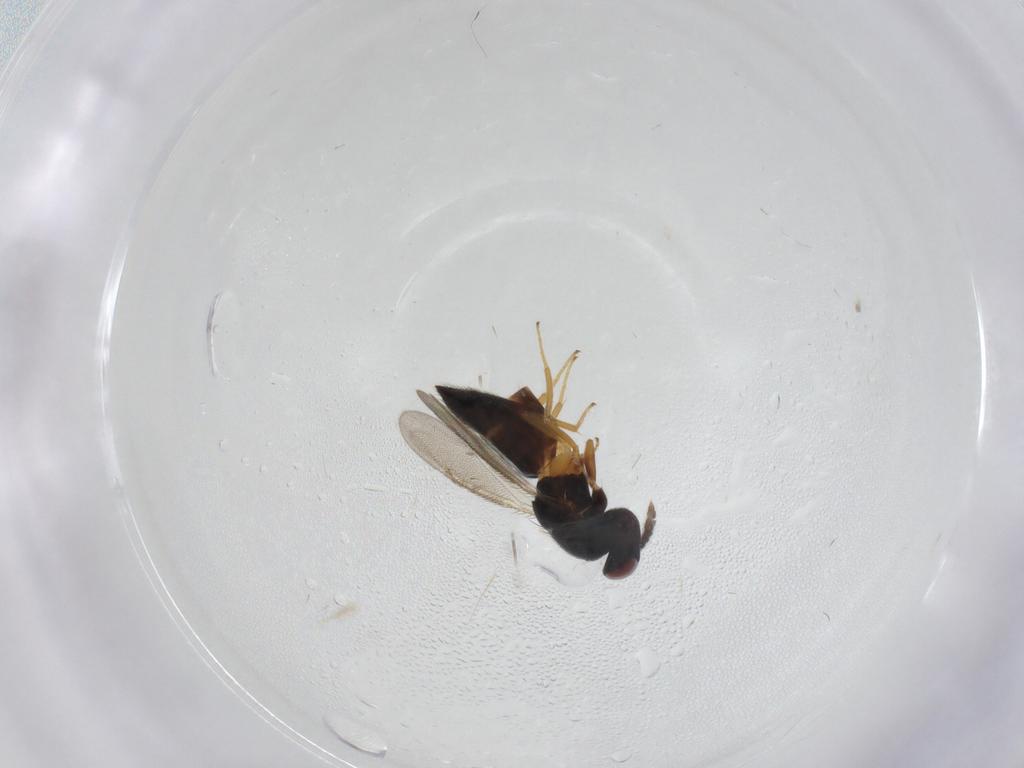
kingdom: Animalia
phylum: Arthropoda
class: Insecta
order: Hymenoptera
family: Eulophidae
